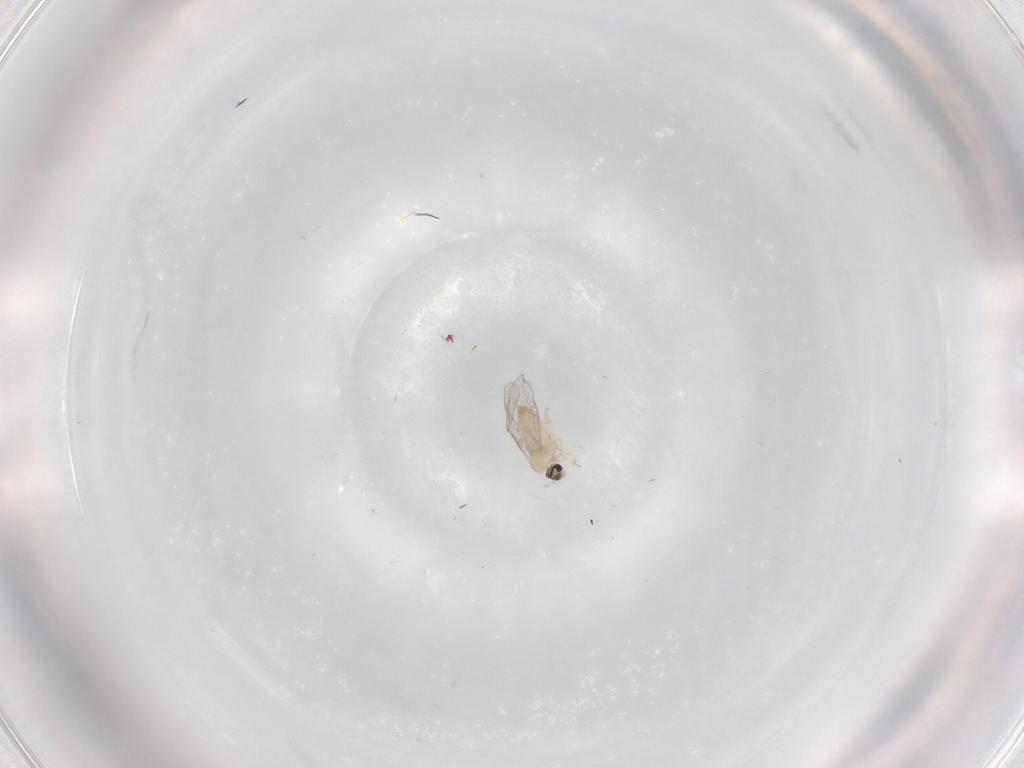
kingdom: Animalia
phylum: Arthropoda
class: Insecta
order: Diptera
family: Cecidomyiidae
